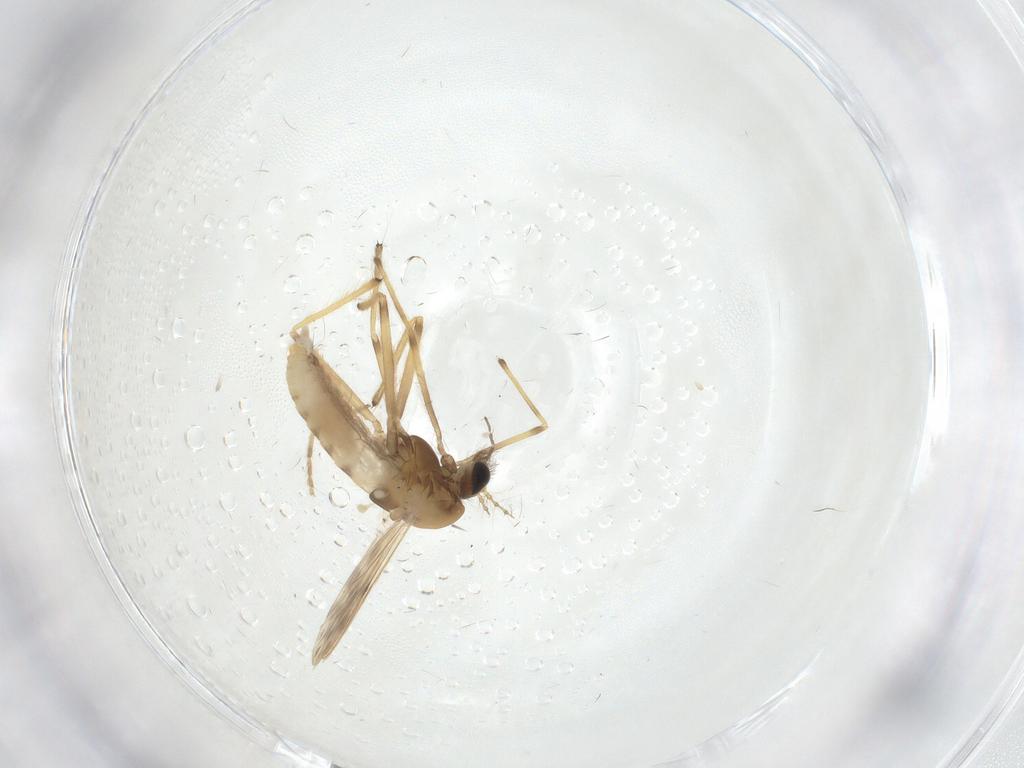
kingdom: Animalia
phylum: Arthropoda
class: Insecta
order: Diptera
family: Chironomidae
